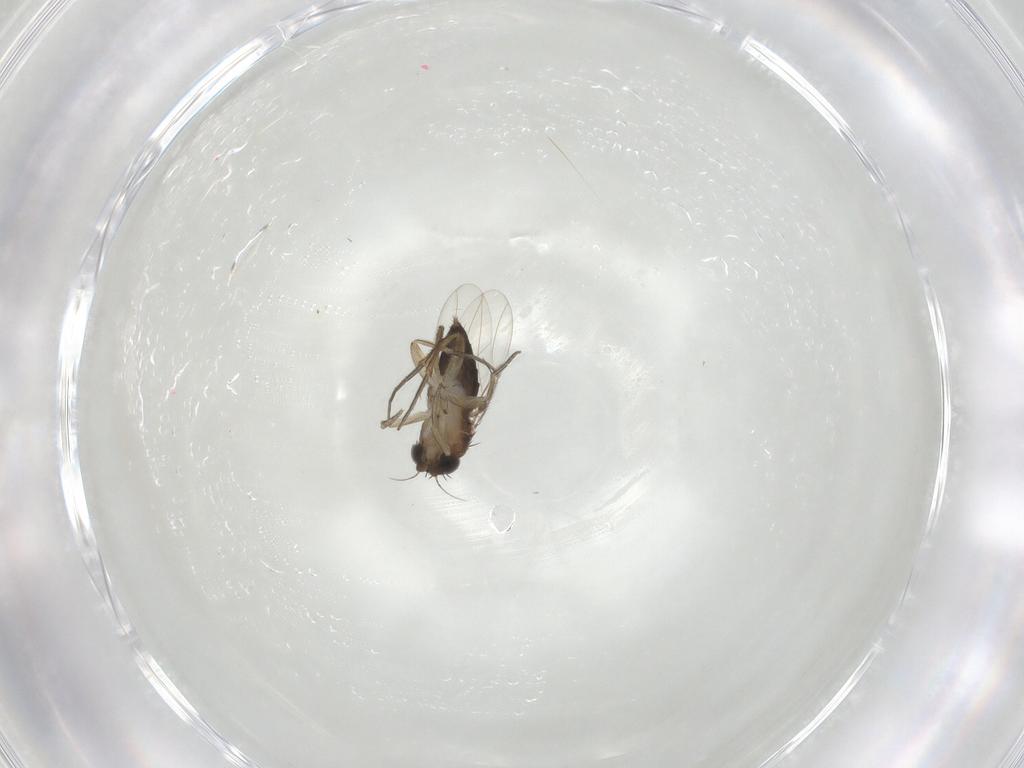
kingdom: Animalia
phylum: Arthropoda
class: Insecta
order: Diptera
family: Phoridae
